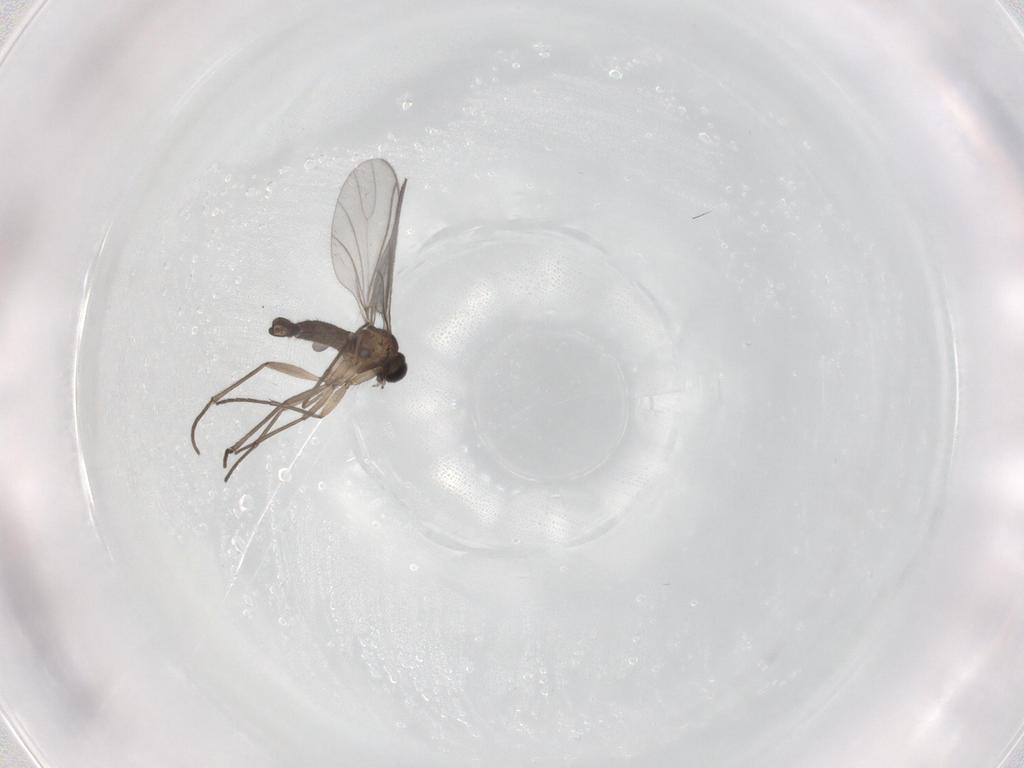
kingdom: Animalia
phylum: Arthropoda
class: Insecta
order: Diptera
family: Sciaridae
